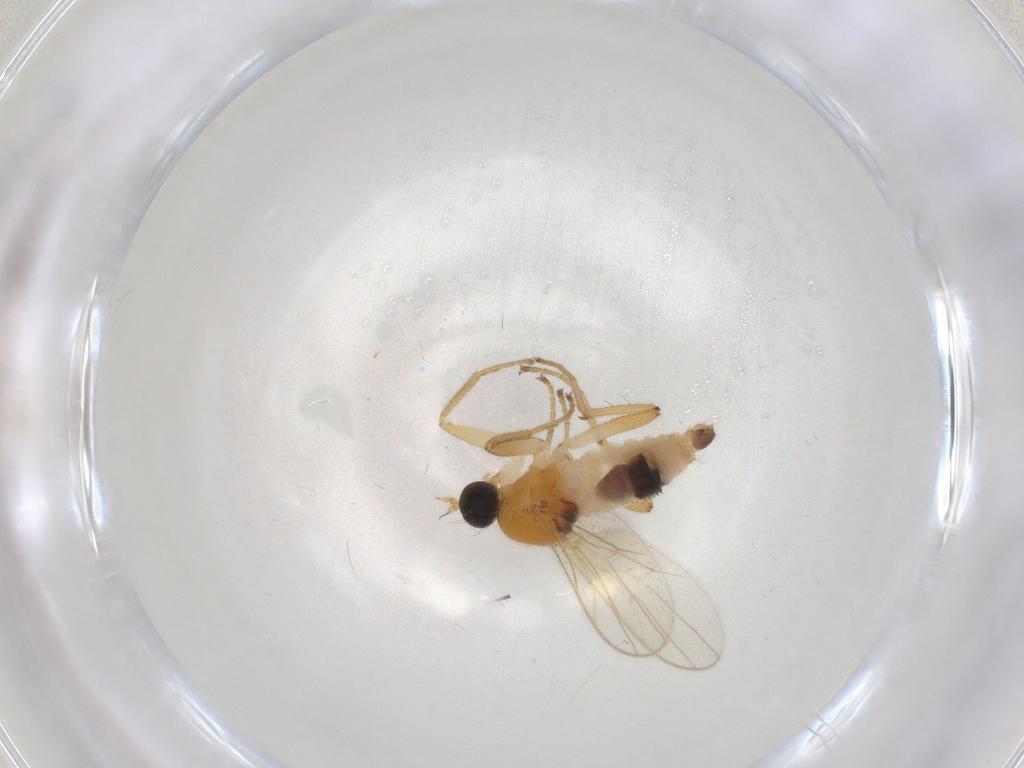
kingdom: Animalia
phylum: Arthropoda
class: Insecta
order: Diptera
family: Hybotidae
